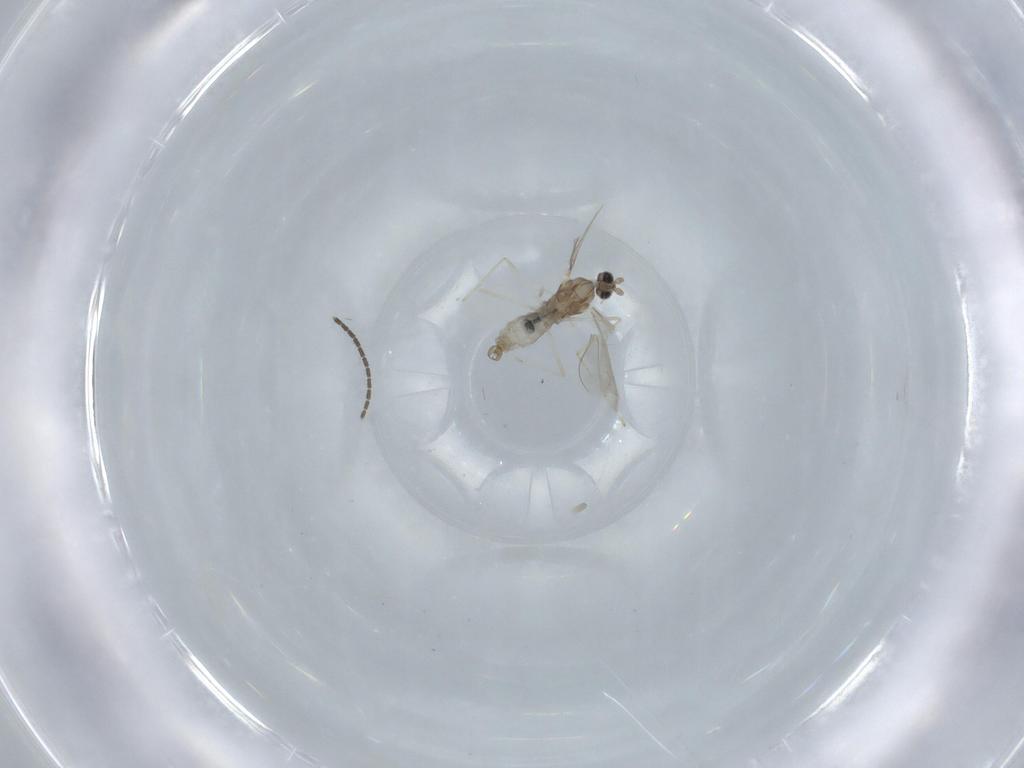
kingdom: Animalia
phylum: Arthropoda
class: Insecta
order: Diptera
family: Cecidomyiidae
